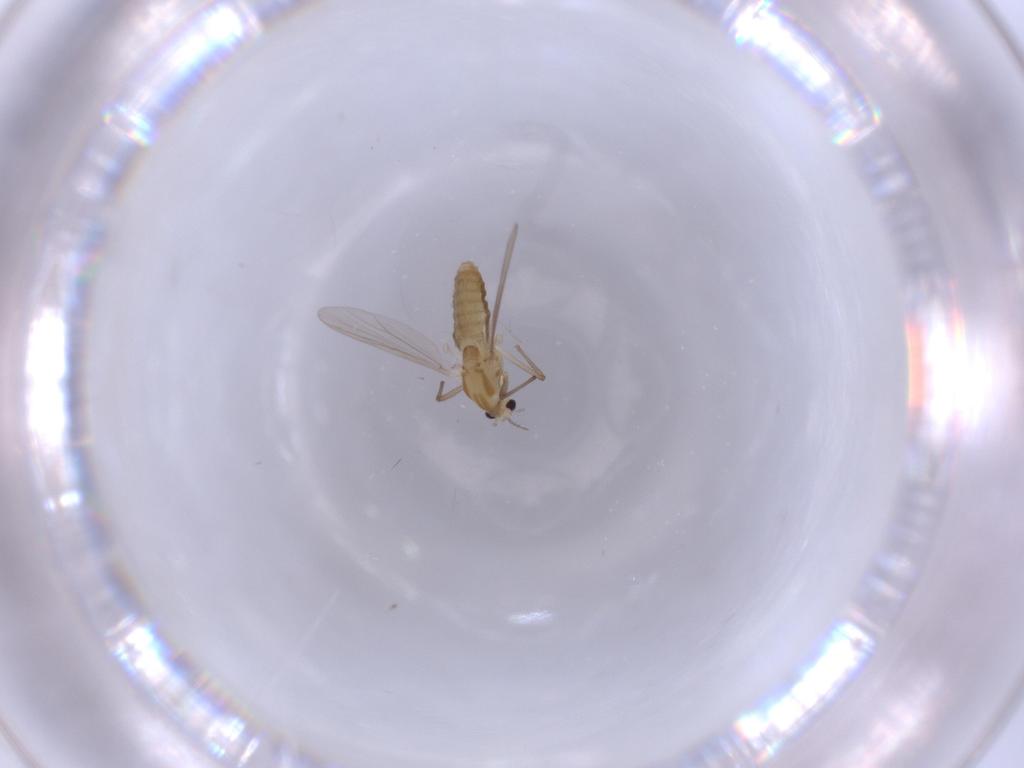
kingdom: Animalia
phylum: Arthropoda
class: Insecta
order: Diptera
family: Chironomidae
